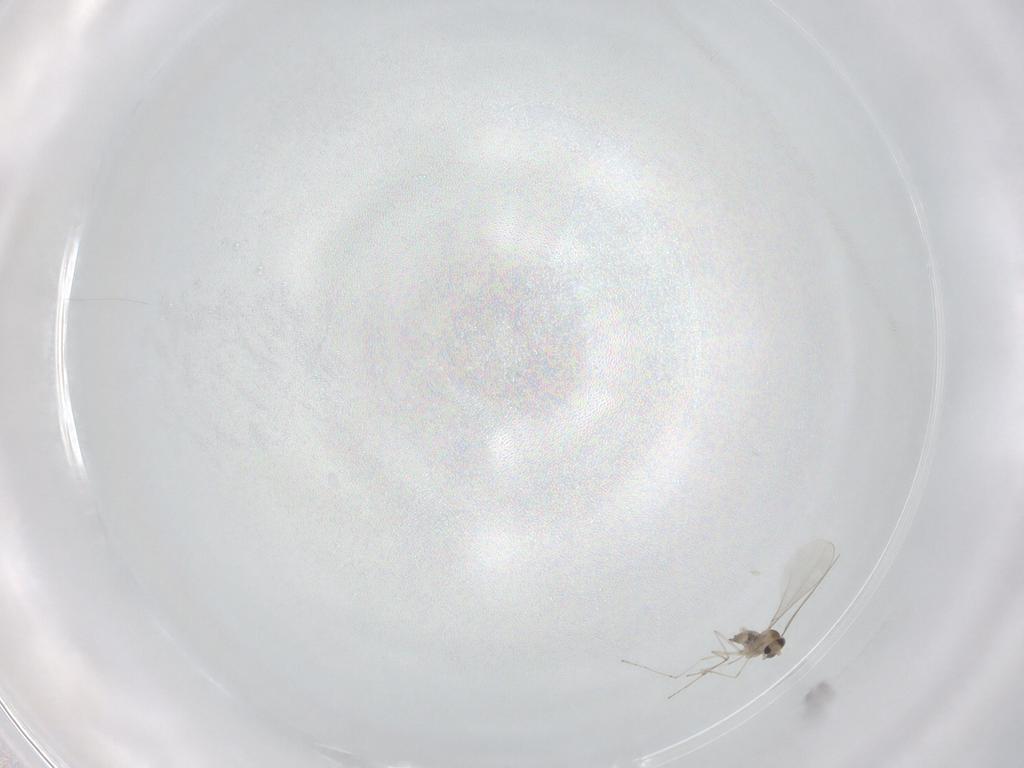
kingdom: Animalia
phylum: Arthropoda
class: Insecta
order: Diptera
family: Cecidomyiidae
